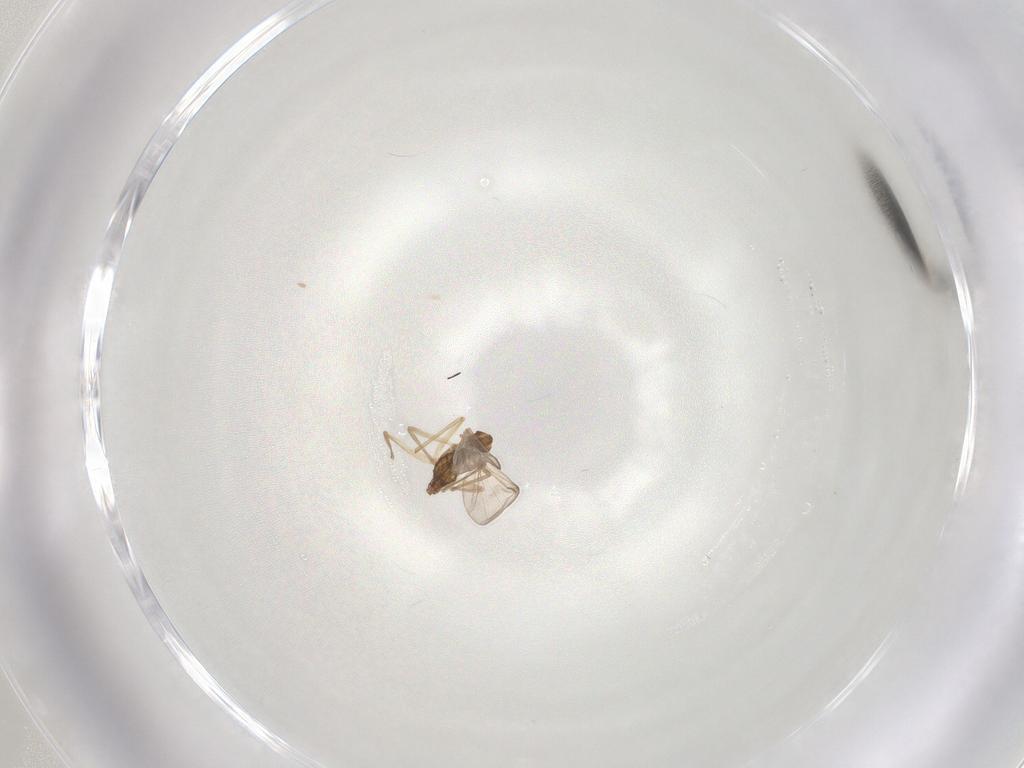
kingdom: Animalia
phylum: Arthropoda
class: Insecta
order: Diptera
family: Chironomidae
